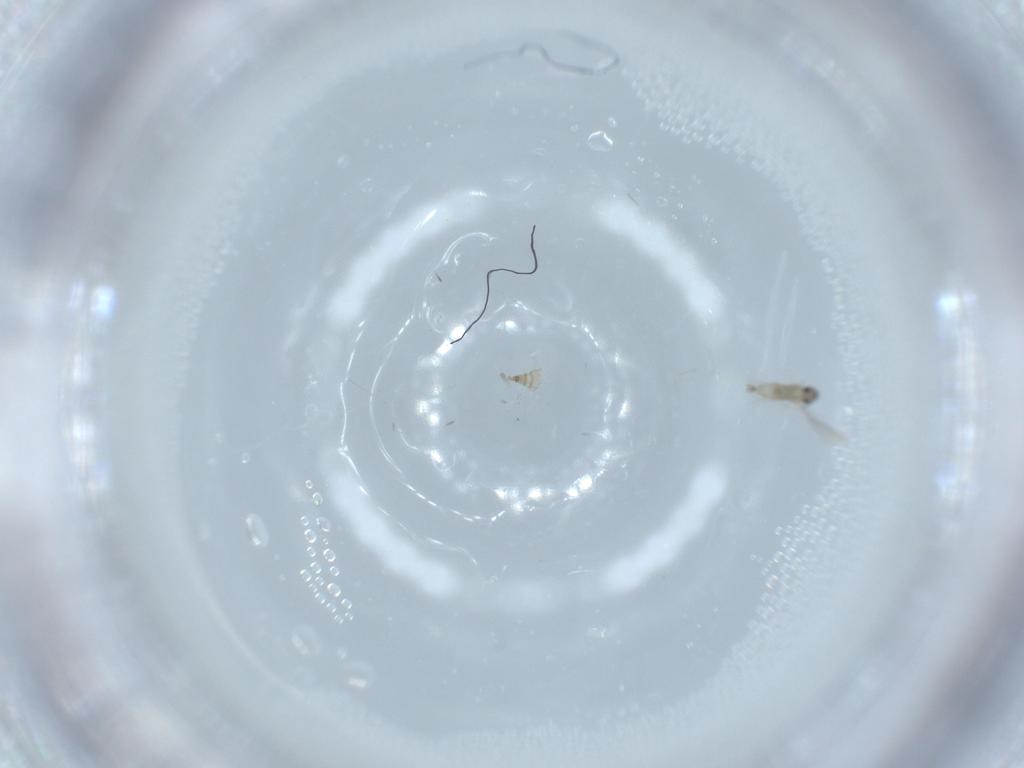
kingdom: Animalia
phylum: Arthropoda
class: Insecta
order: Diptera
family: Cecidomyiidae
